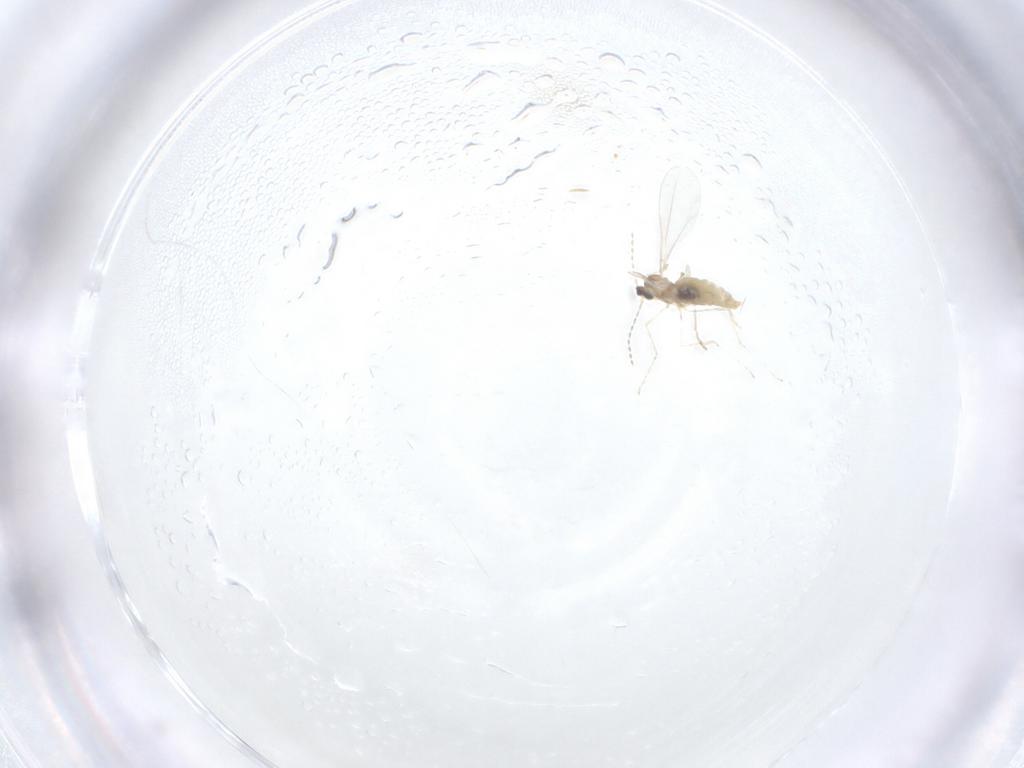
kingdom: Animalia
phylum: Arthropoda
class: Insecta
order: Diptera
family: Cecidomyiidae
